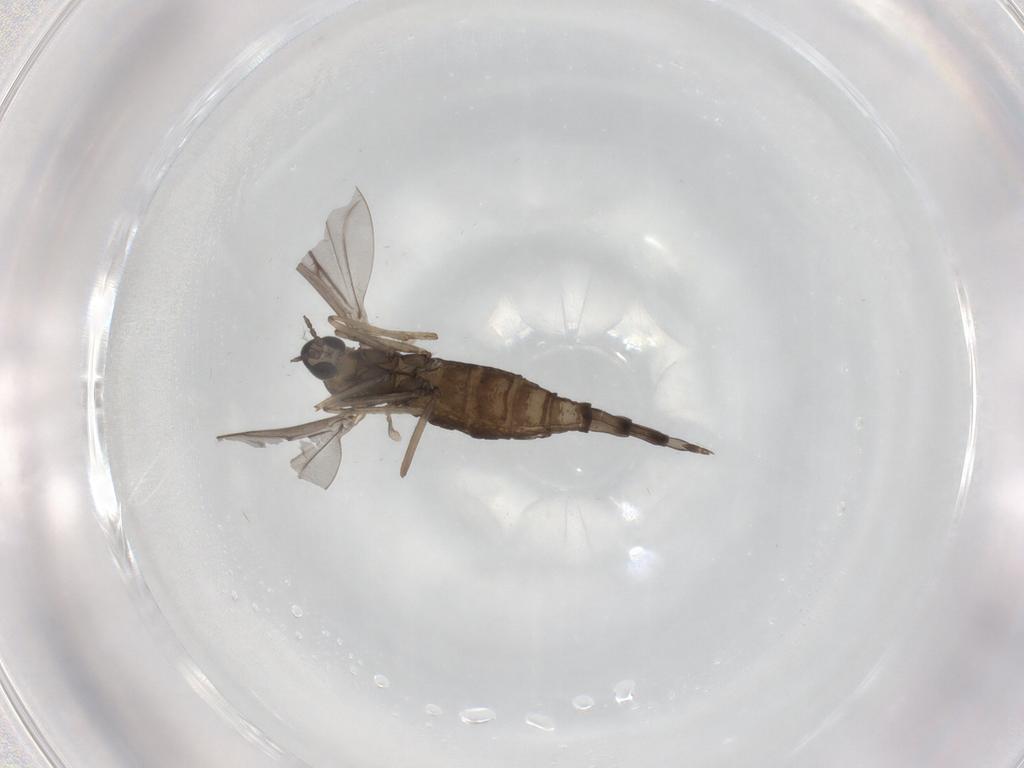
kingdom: Animalia
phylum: Arthropoda
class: Insecta
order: Diptera
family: Cecidomyiidae
